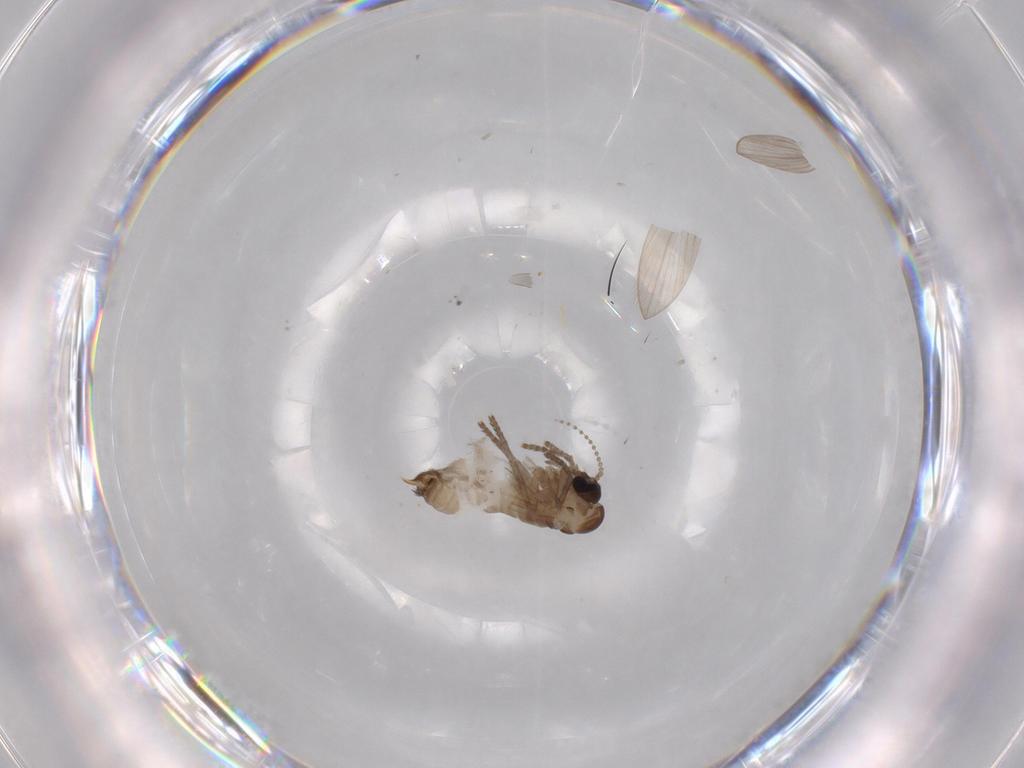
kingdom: Animalia
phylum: Arthropoda
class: Insecta
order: Diptera
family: Psychodidae
